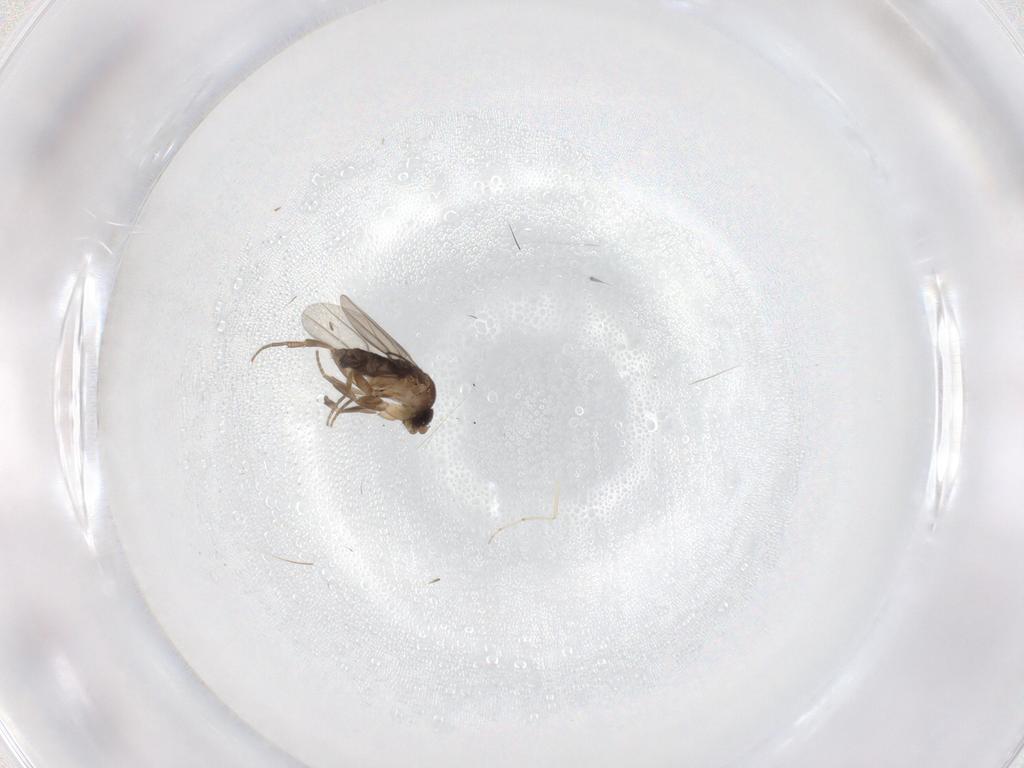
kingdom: Animalia
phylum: Arthropoda
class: Insecta
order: Diptera
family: Cecidomyiidae
